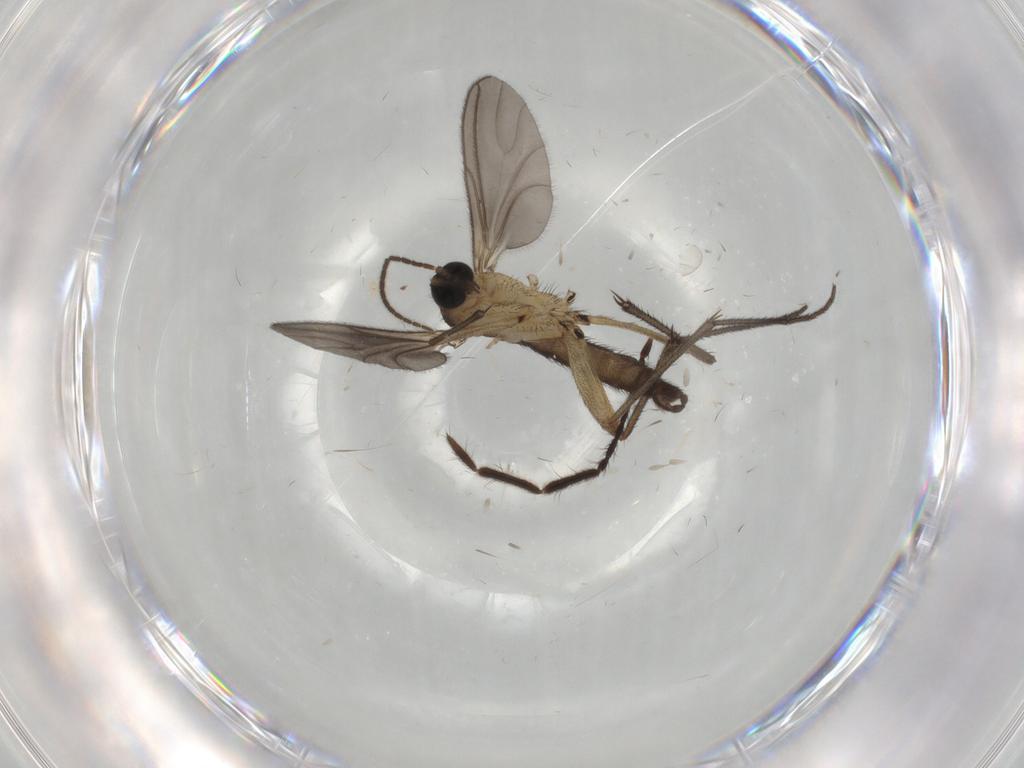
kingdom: Animalia
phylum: Arthropoda
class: Insecta
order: Diptera
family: Sciaridae
